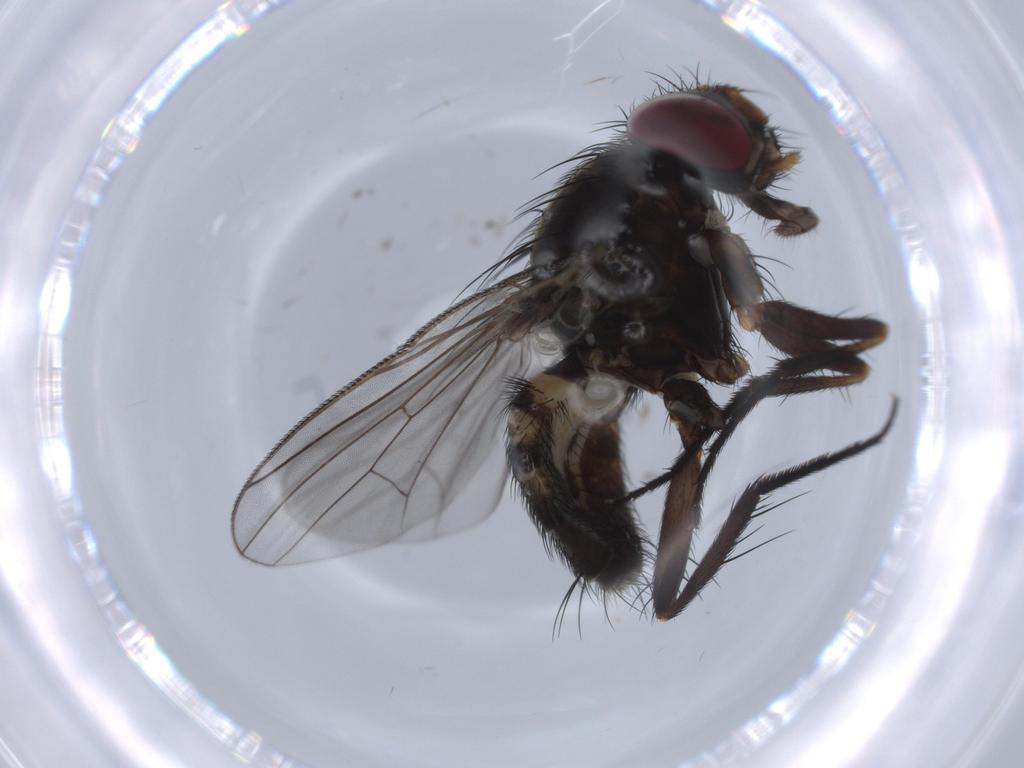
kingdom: Animalia
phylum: Arthropoda
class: Insecta
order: Diptera
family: Fannia
